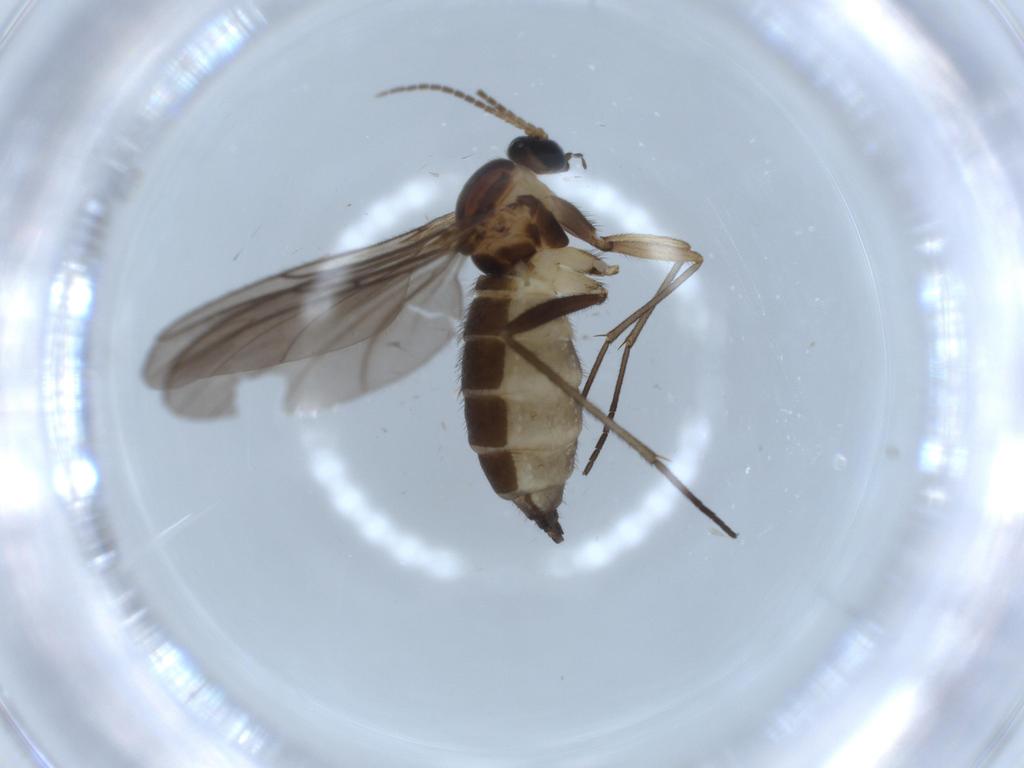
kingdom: Animalia
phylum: Arthropoda
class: Insecta
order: Diptera
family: Sciaridae
